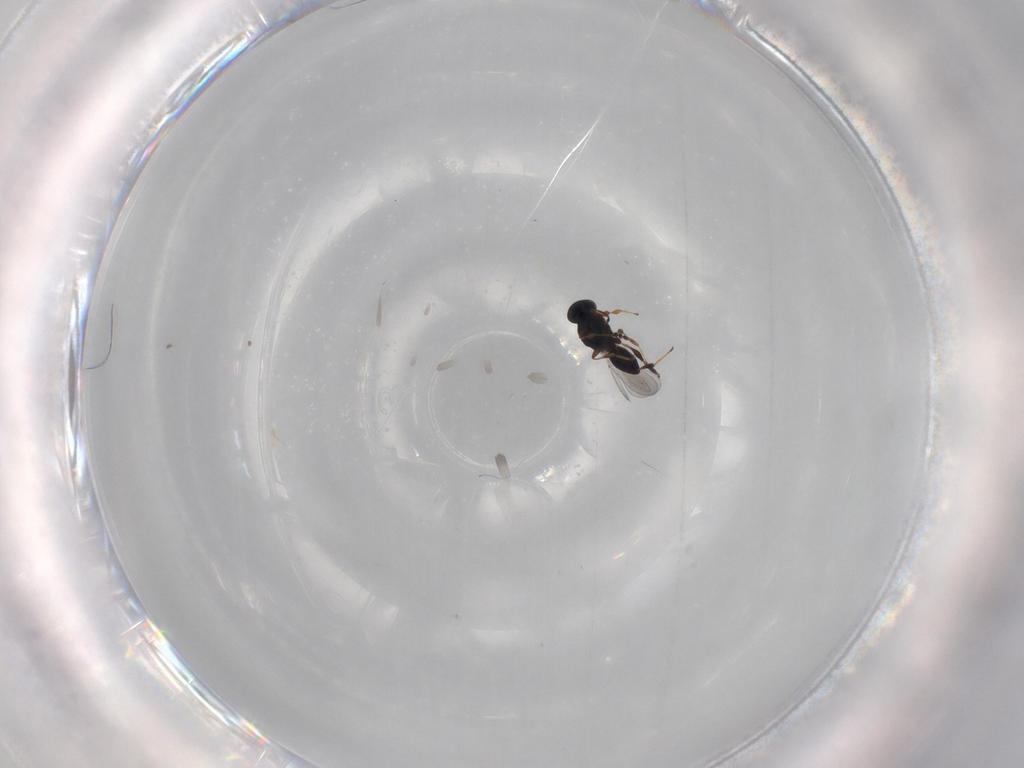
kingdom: Animalia
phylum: Arthropoda
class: Insecta
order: Hymenoptera
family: Platygastridae
